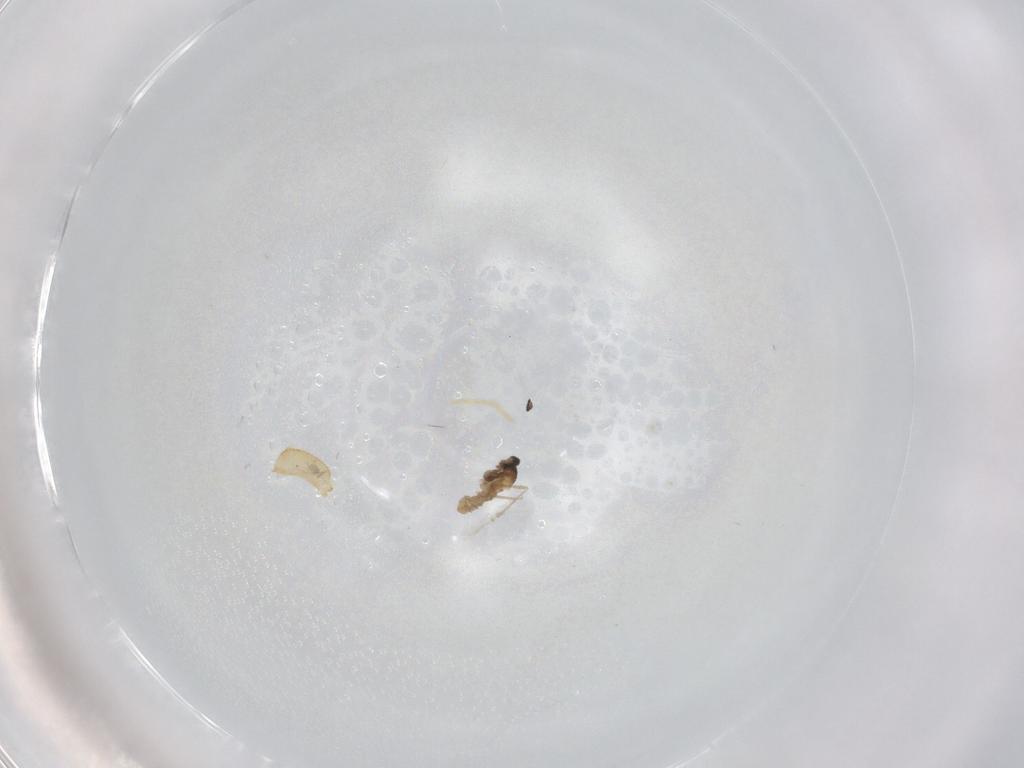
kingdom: Animalia
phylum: Arthropoda
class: Insecta
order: Diptera
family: Cecidomyiidae
